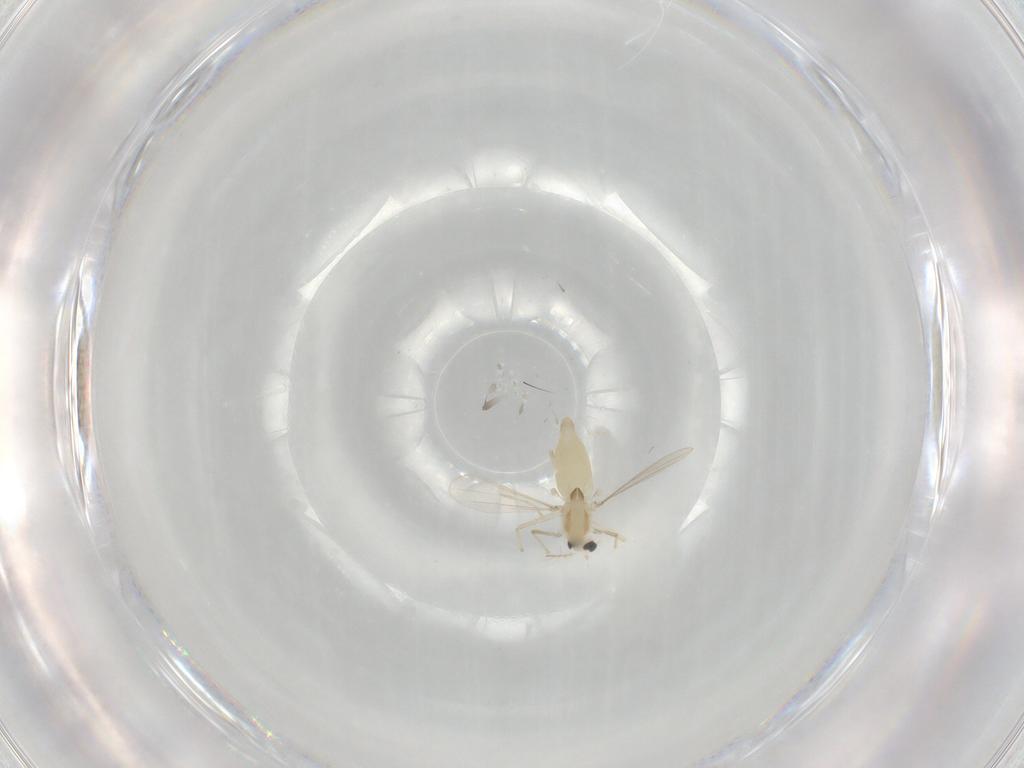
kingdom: Animalia
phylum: Arthropoda
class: Insecta
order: Diptera
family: Chironomidae
